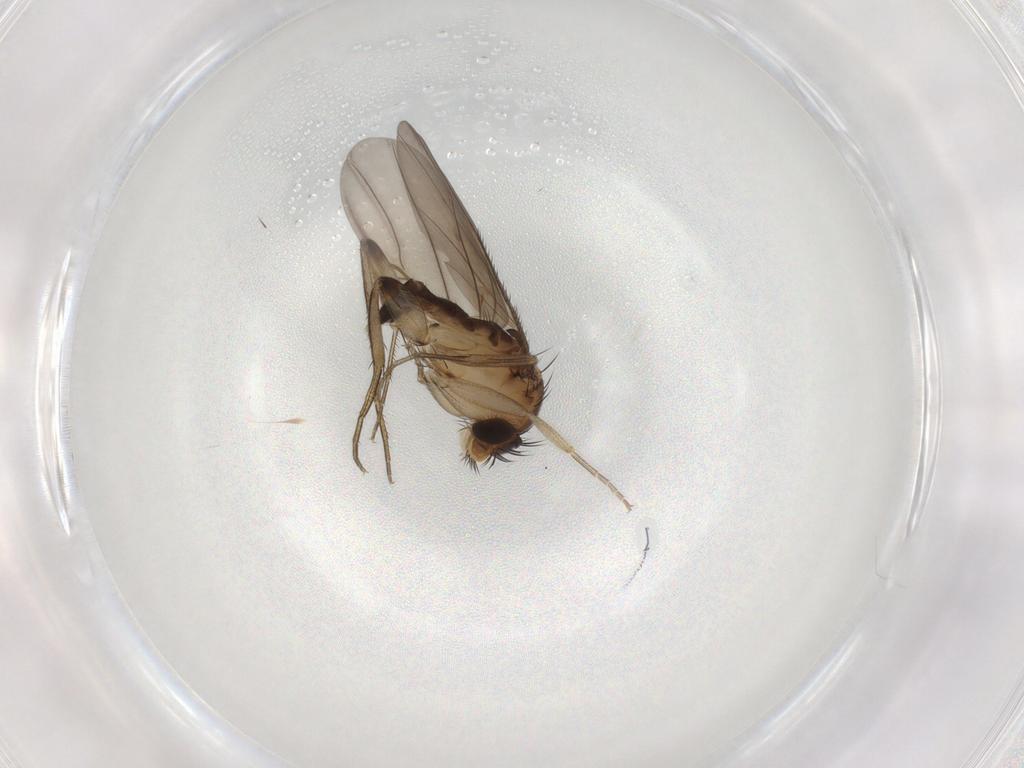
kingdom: Animalia
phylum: Arthropoda
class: Insecta
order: Diptera
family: Phoridae
